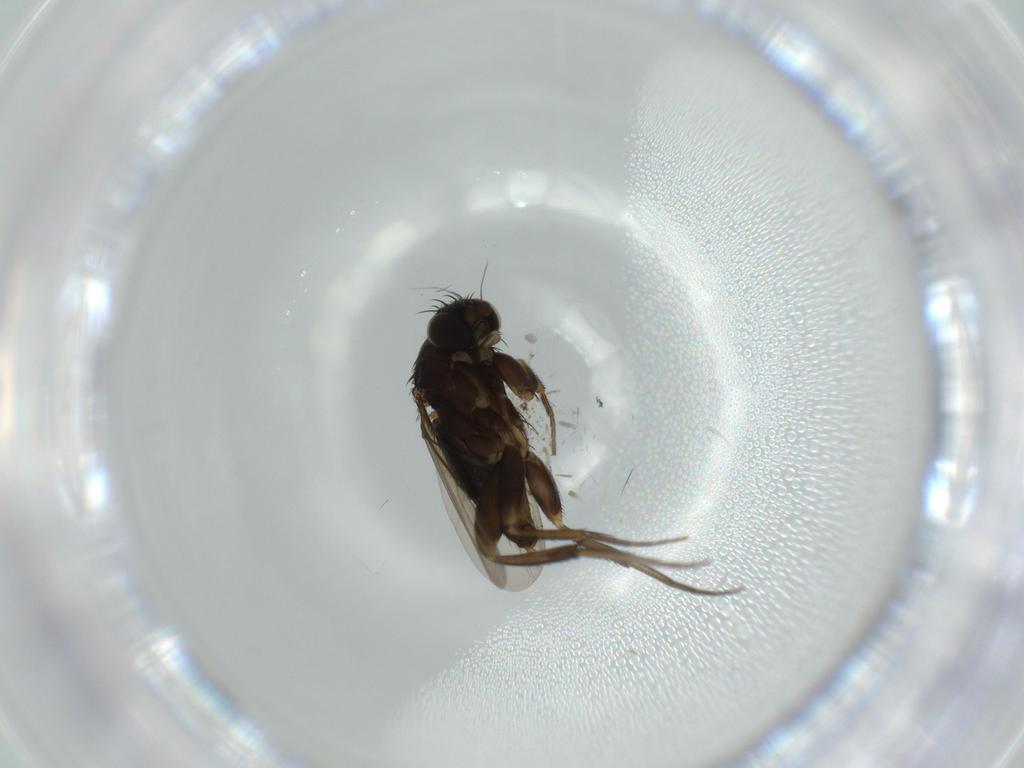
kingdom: Animalia
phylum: Arthropoda
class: Insecta
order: Diptera
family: Phoridae
